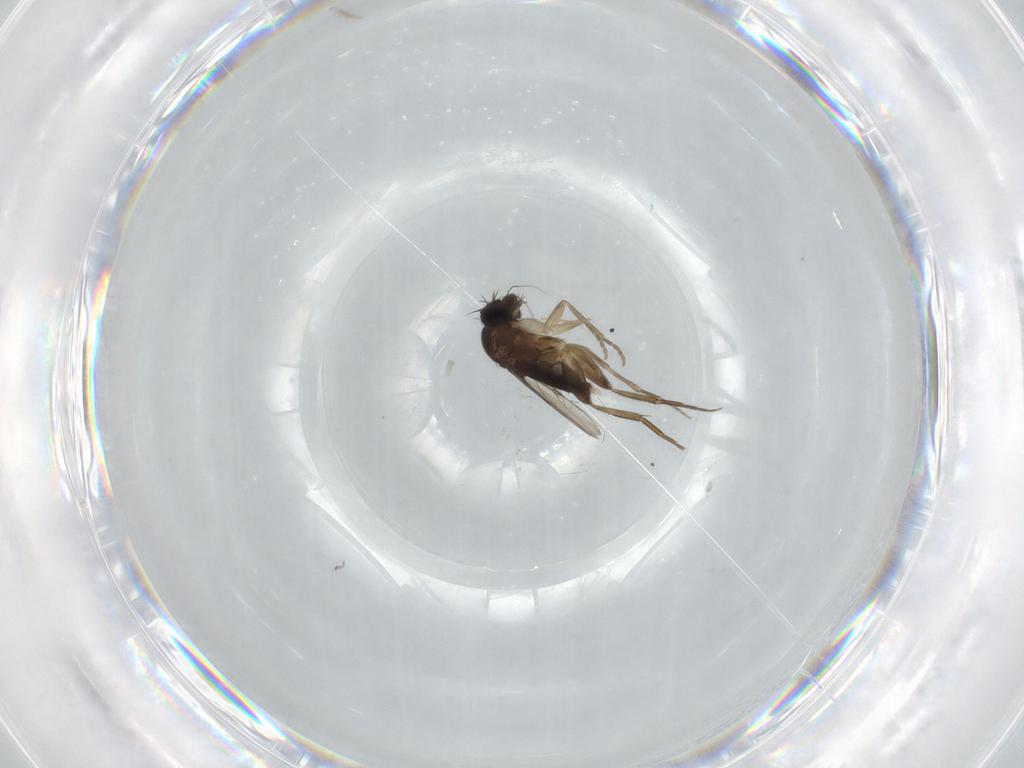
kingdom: Animalia
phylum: Arthropoda
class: Insecta
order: Diptera
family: Phoridae
